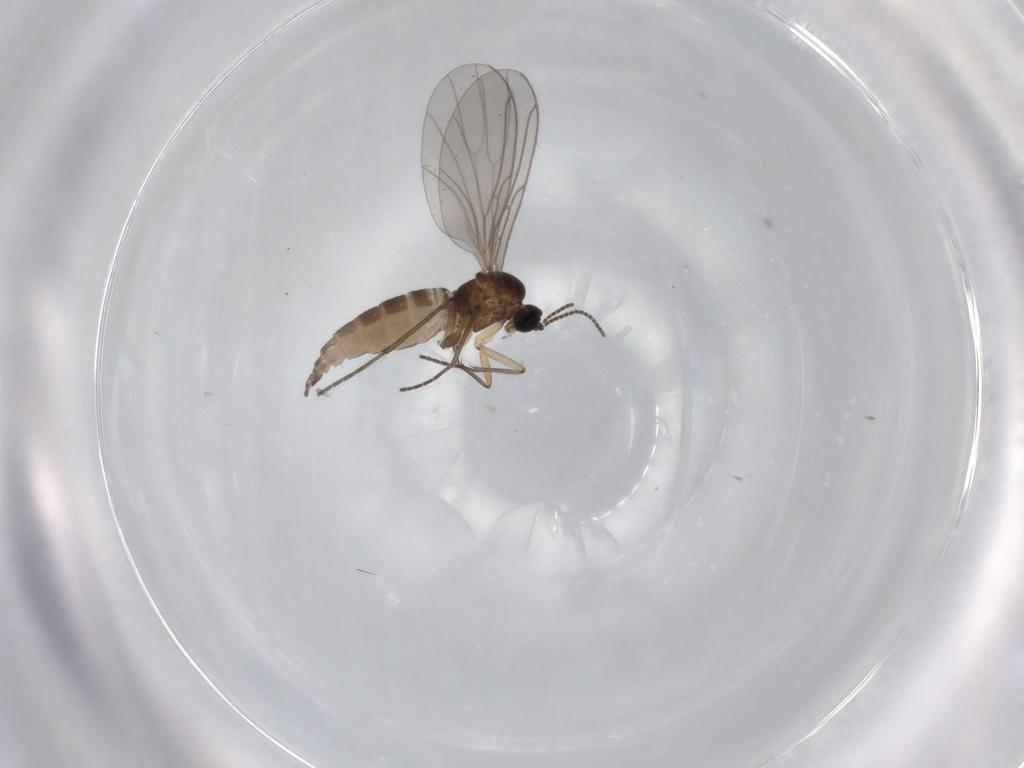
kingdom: Animalia
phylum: Arthropoda
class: Insecta
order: Diptera
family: Sciaridae
